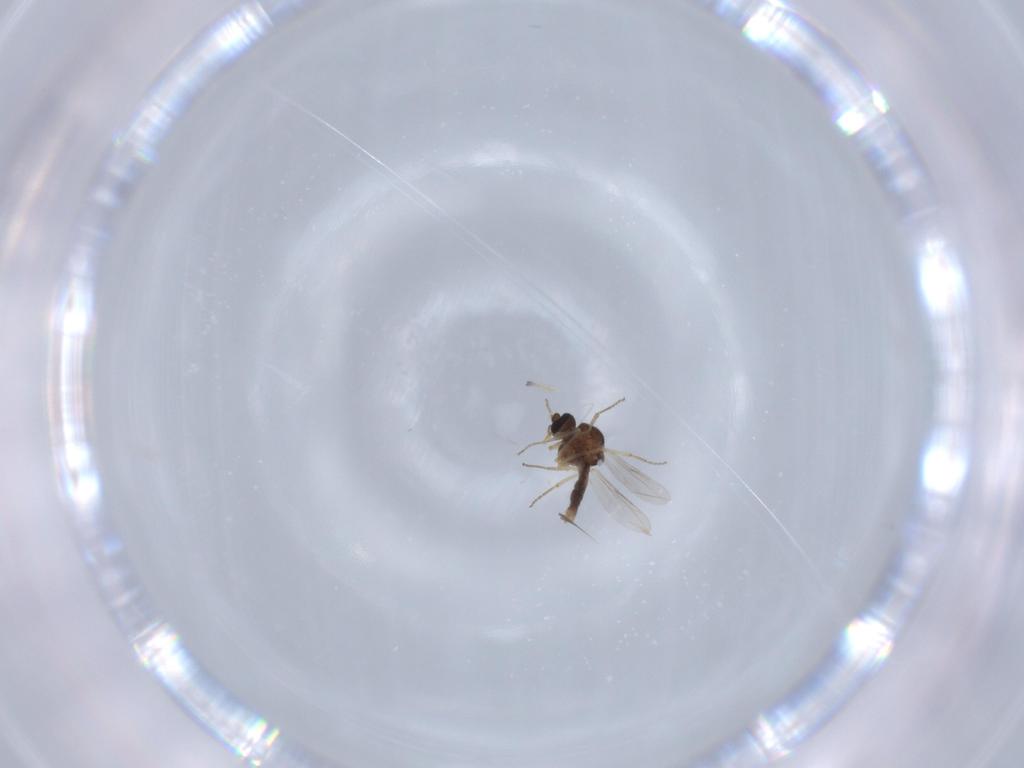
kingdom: Animalia
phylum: Arthropoda
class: Insecta
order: Diptera
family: Ceratopogonidae
